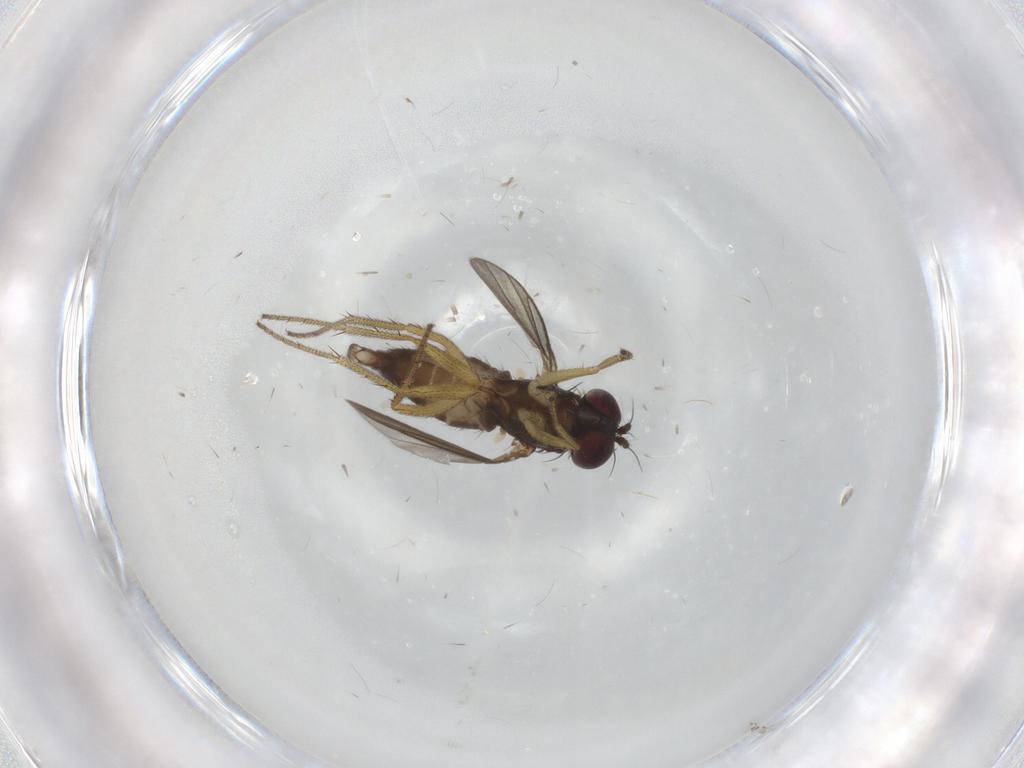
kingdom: Animalia
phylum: Arthropoda
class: Insecta
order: Diptera
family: Dolichopodidae
